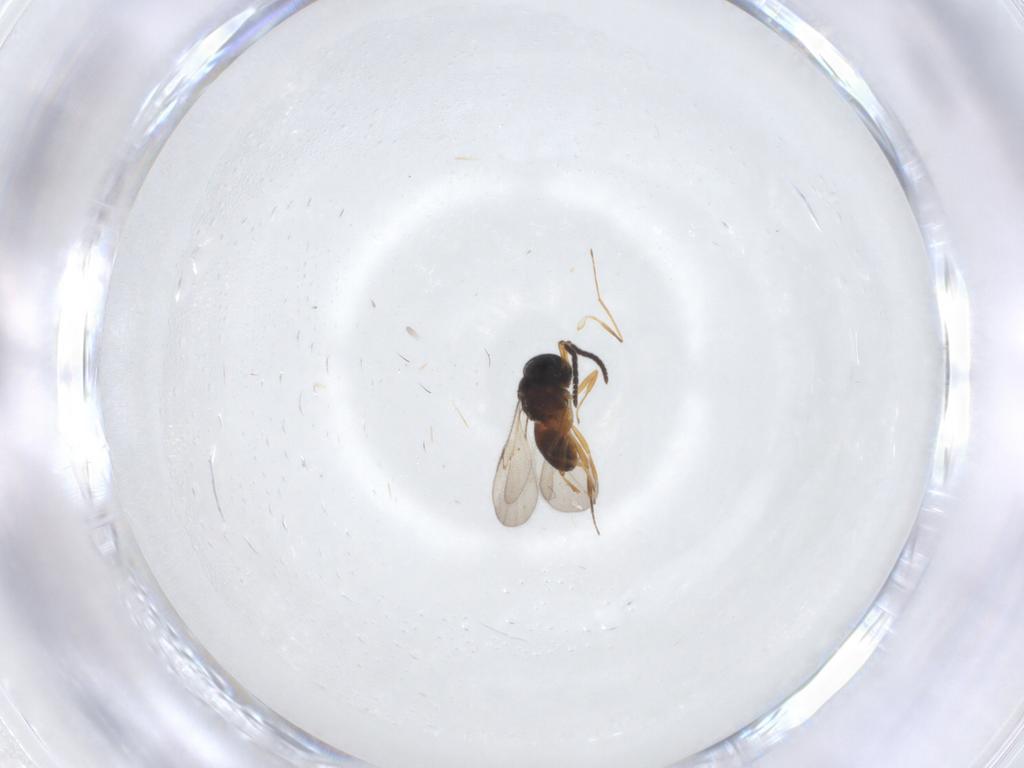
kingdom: Animalia
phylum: Arthropoda
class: Insecta
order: Coleoptera
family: Curculionidae
